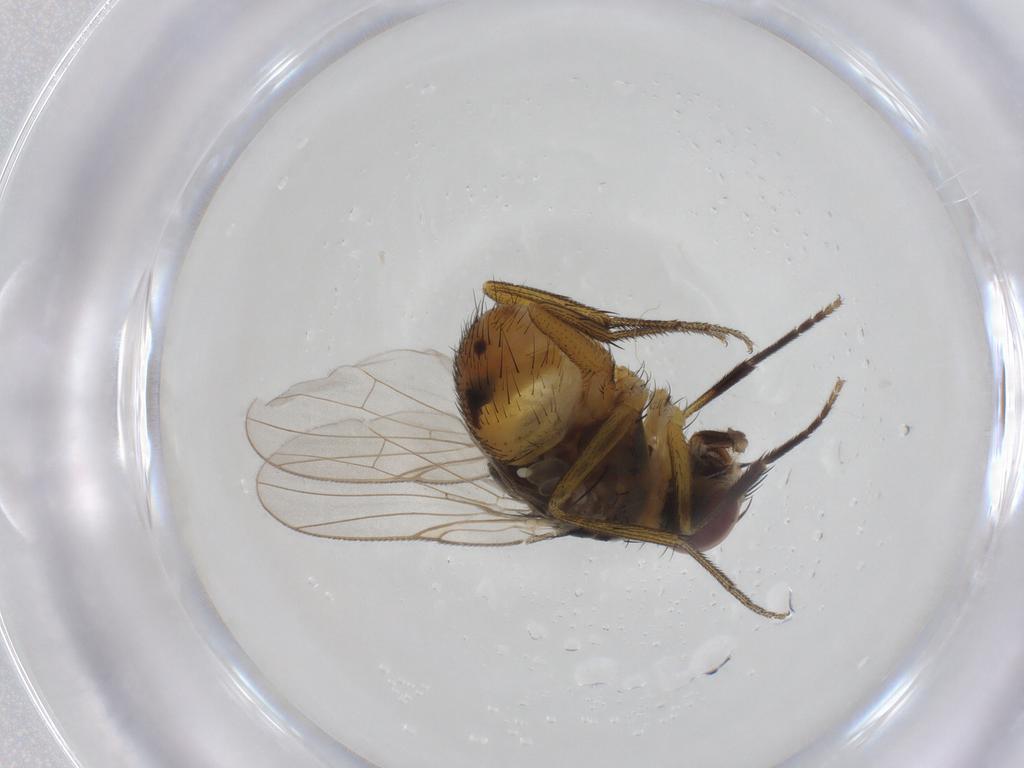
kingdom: Animalia
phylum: Arthropoda
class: Insecta
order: Diptera
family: Muscidae
